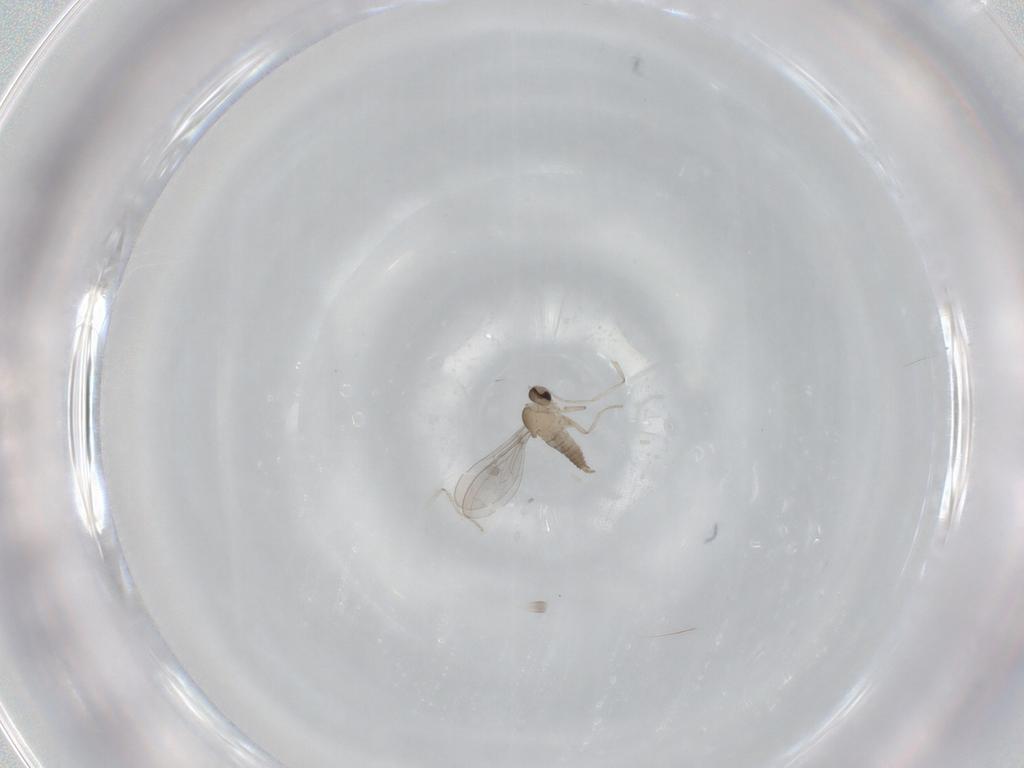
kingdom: Animalia
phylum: Arthropoda
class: Insecta
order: Diptera
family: Cecidomyiidae
